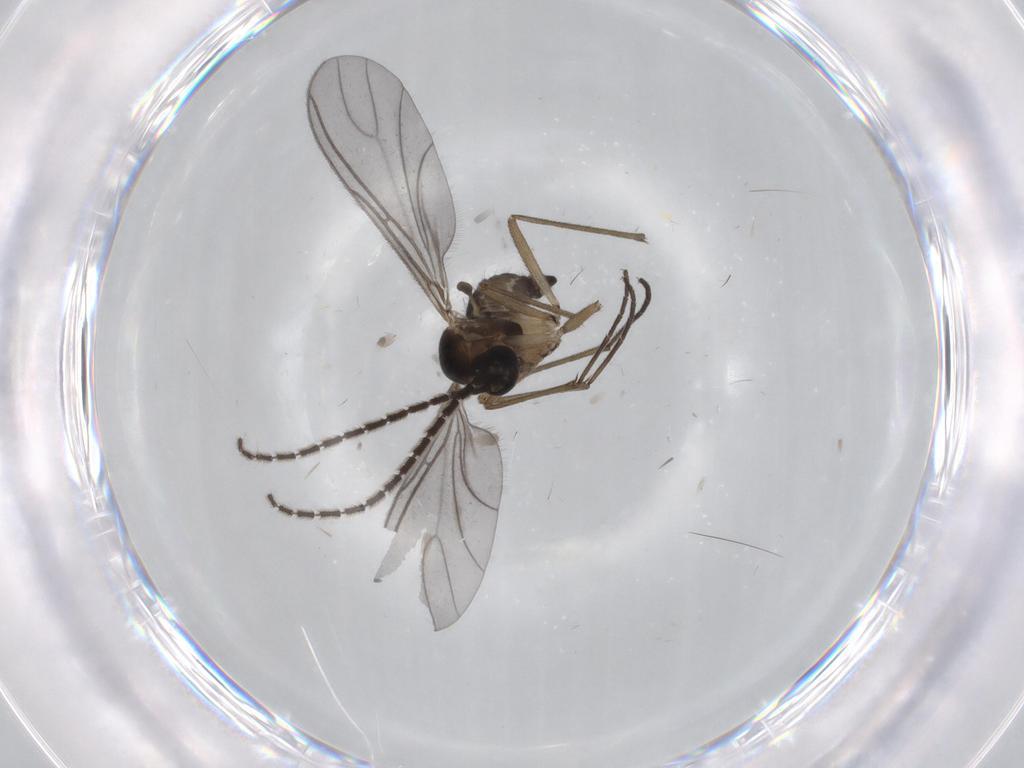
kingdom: Animalia
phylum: Arthropoda
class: Insecta
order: Diptera
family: Sciaridae
